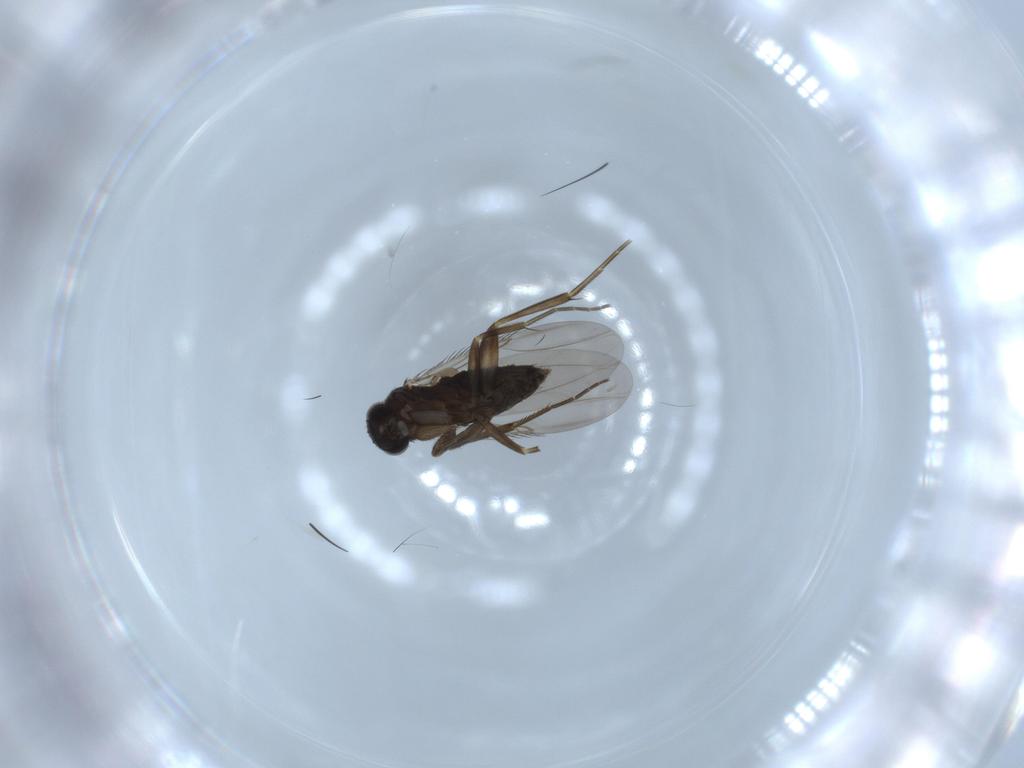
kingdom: Animalia
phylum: Arthropoda
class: Insecta
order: Diptera
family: Phoridae
